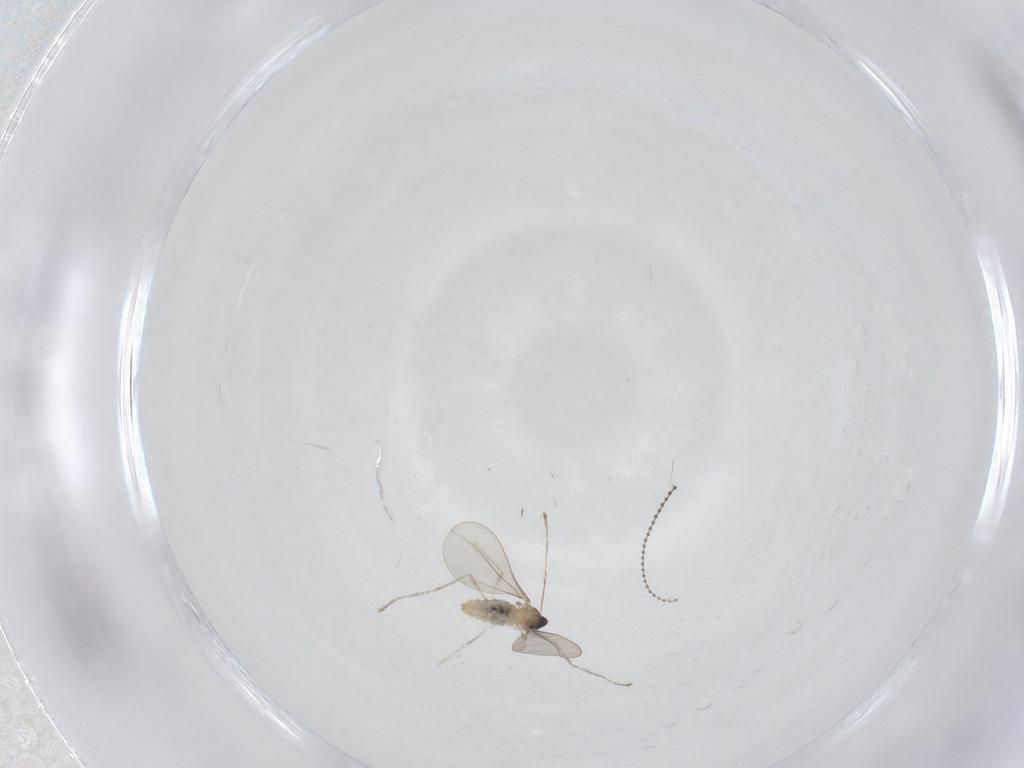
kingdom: Animalia
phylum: Arthropoda
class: Insecta
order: Diptera
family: Cecidomyiidae
